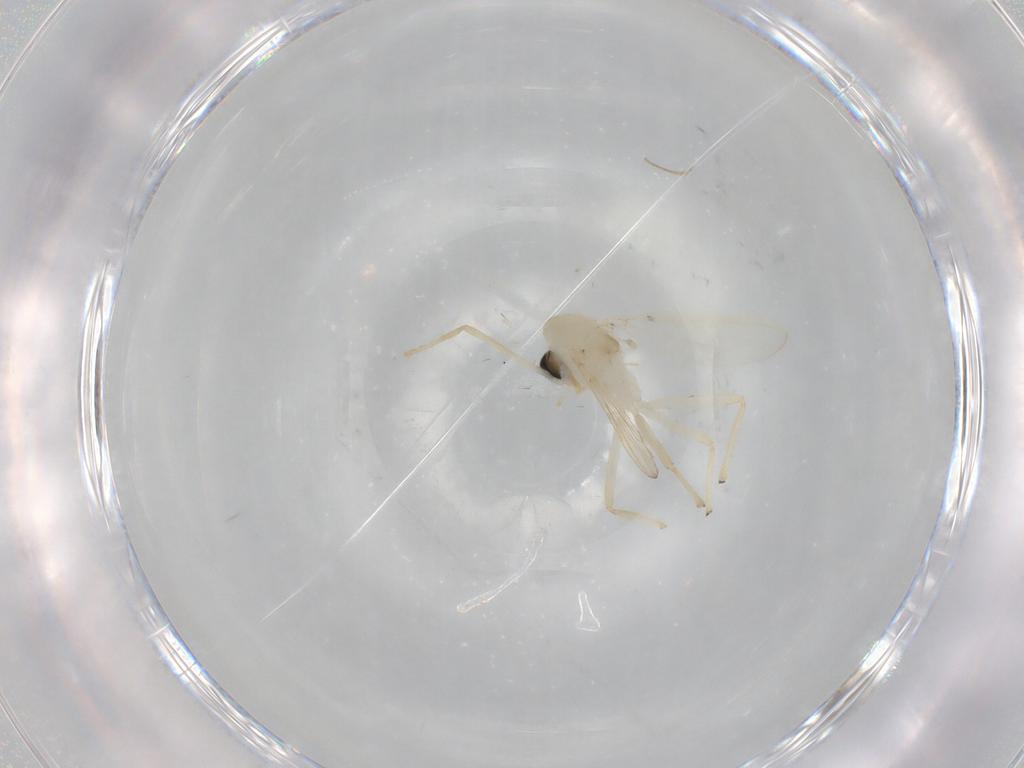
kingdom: Animalia
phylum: Arthropoda
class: Insecta
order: Diptera
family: Chironomidae
